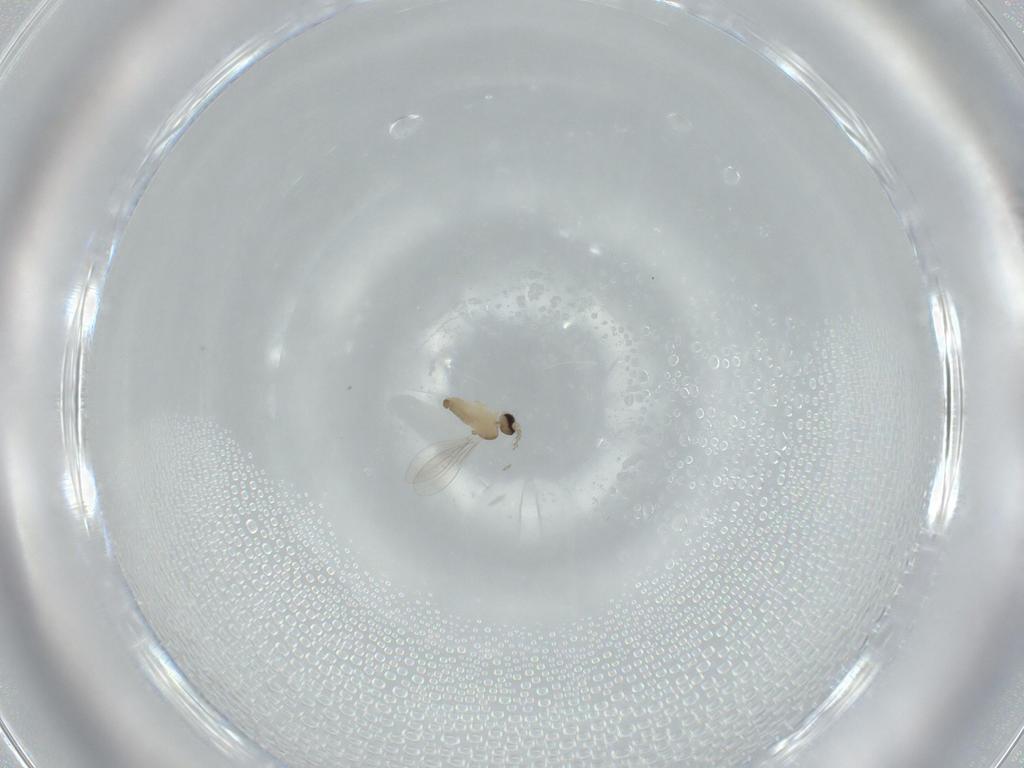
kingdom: Animalia
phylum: Arthropoda
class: Insecta
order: Diptera
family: Cecidomyiidae
